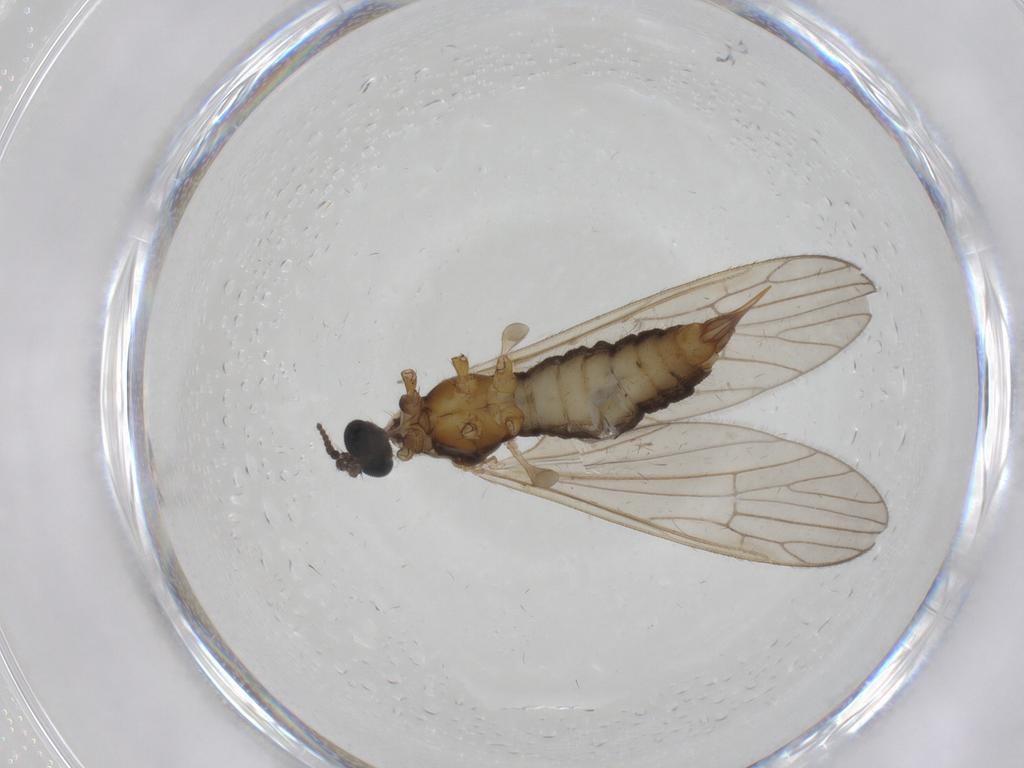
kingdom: Animalia
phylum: Arthropoda
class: Insecta
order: Diptera
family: Agromyzidae
